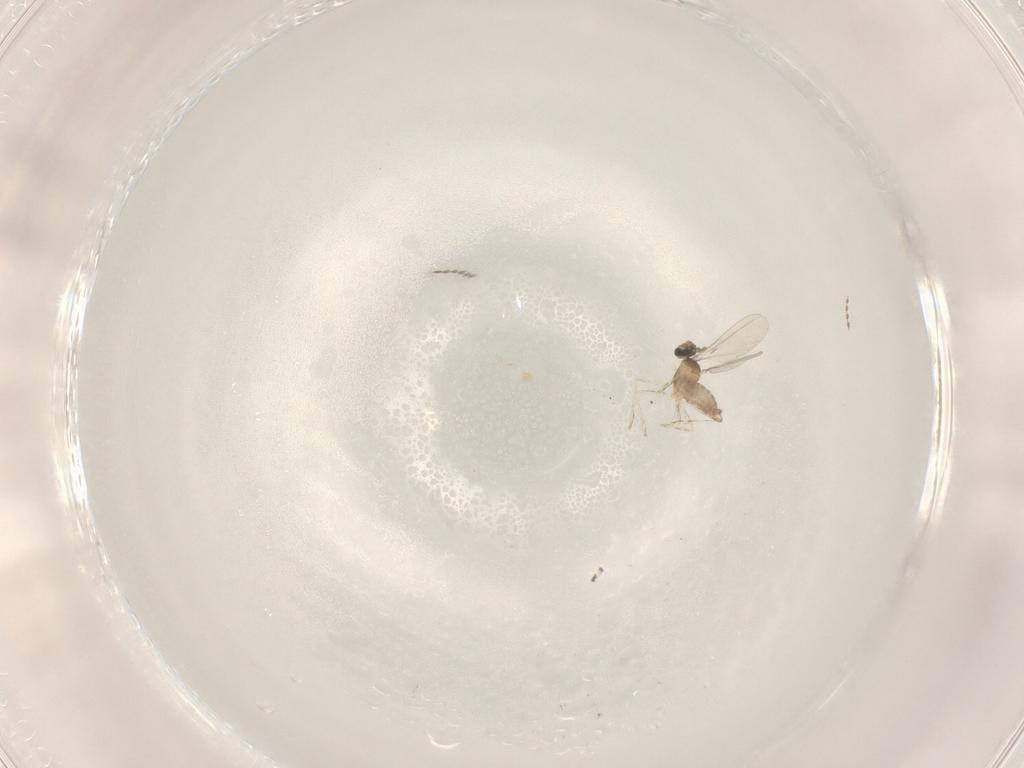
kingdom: Animalia
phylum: Arthropoda
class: Insecta
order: Diptera
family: Cecidomyiidae
